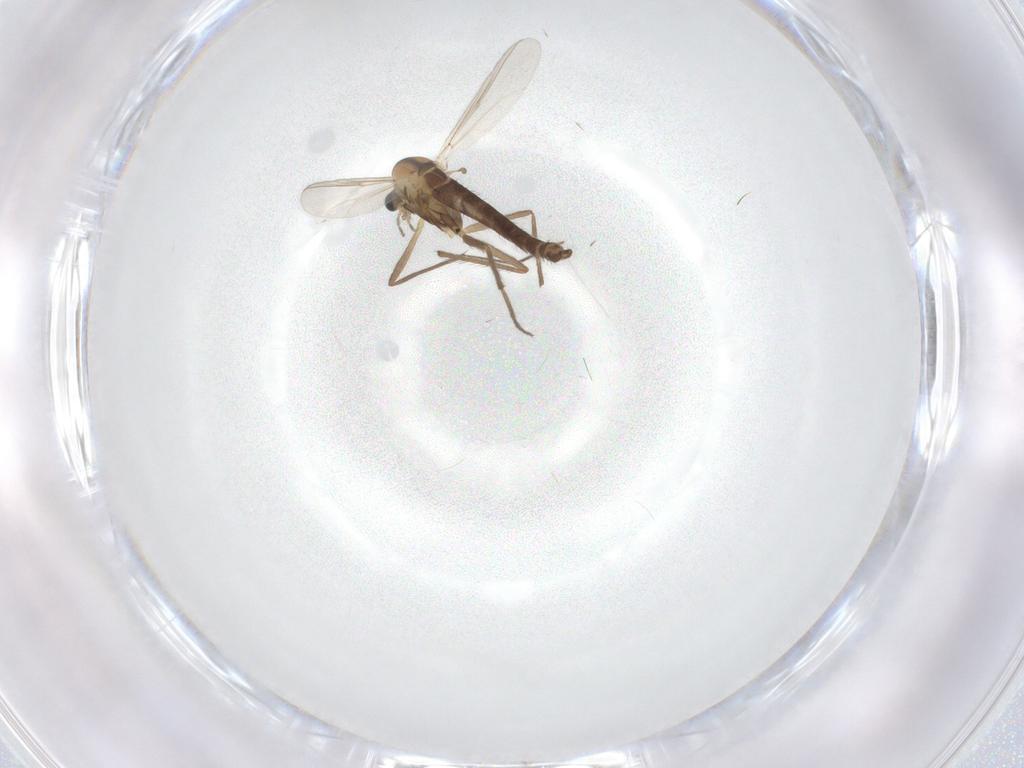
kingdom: Animalia
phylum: Arthropoda
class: Insecta
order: Diptera
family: Chironomidae
